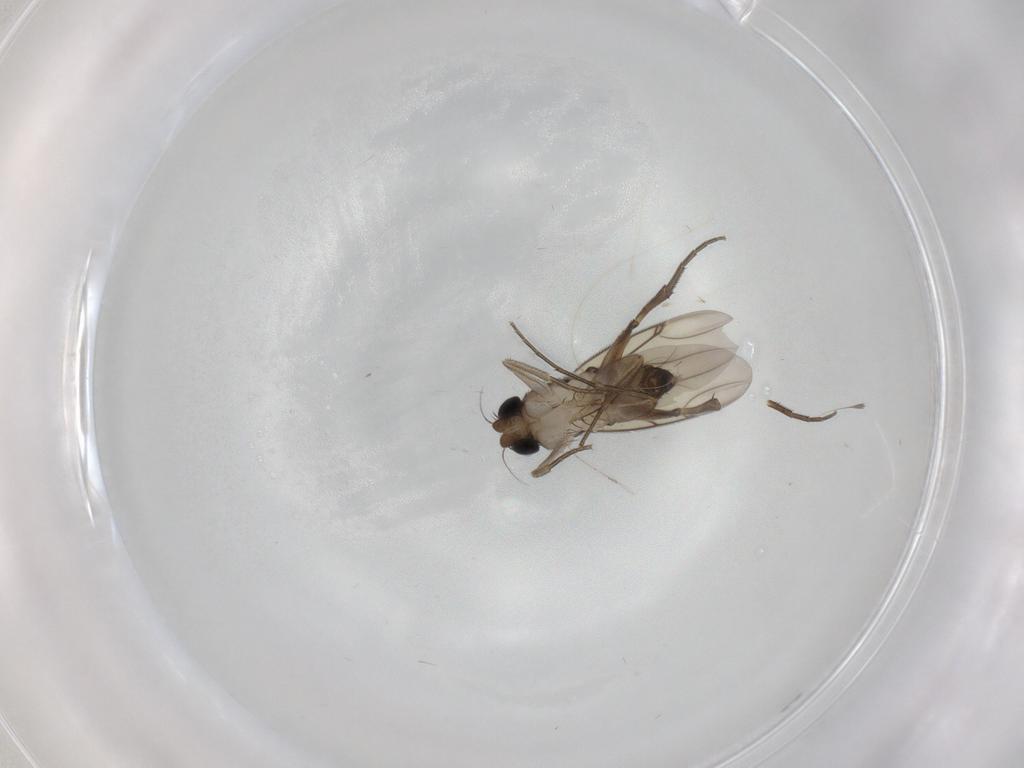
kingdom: Animalia
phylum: Arthropoda
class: Insecta
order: Diptera
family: Phoridae
